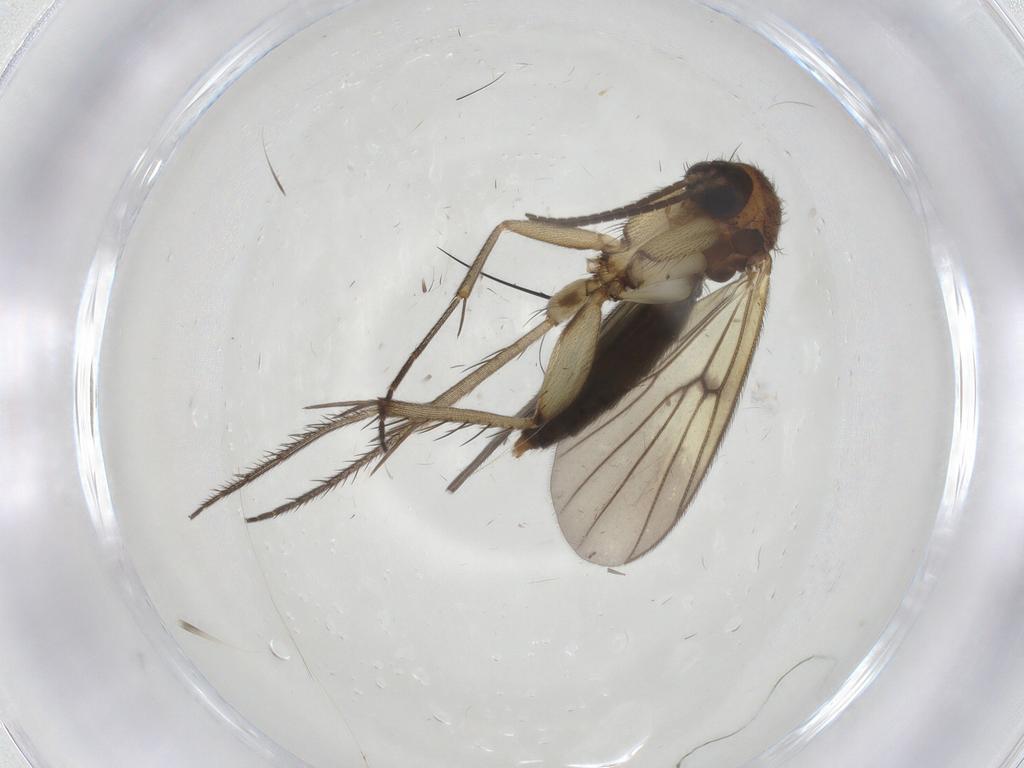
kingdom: Animalia
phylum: Arthropoda
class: Insecta
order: Diptera
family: Mycetophilidae
